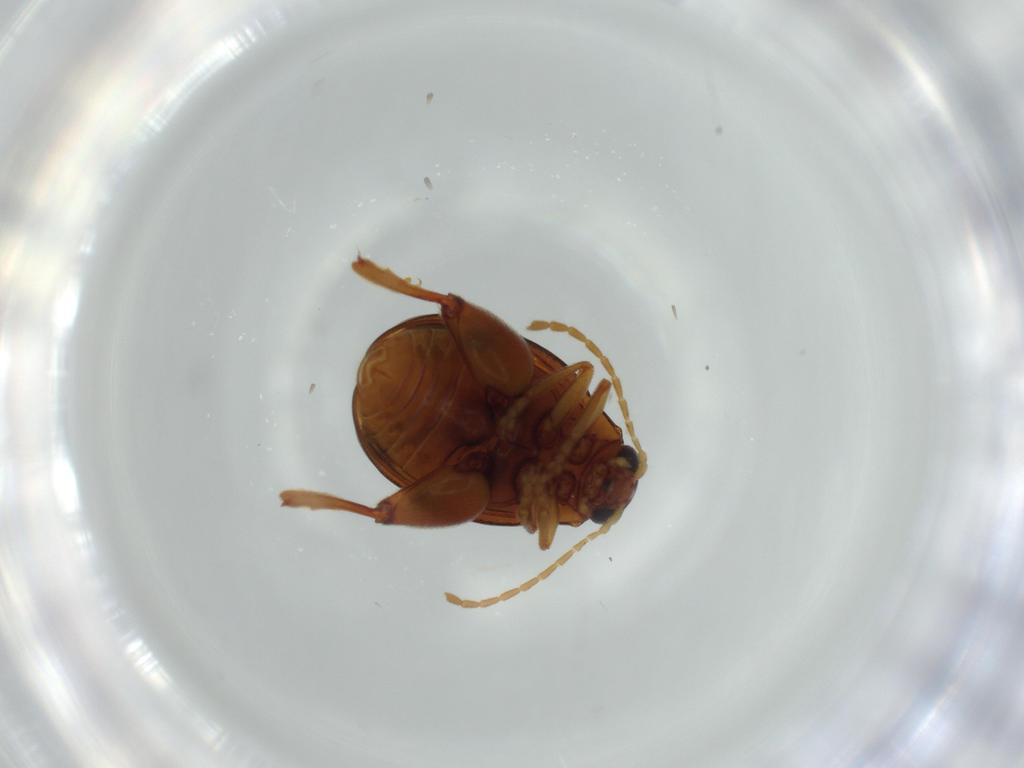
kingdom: Animalia
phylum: Arthropoda
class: Insecta
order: Coleoptera
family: Chrysomelidae
